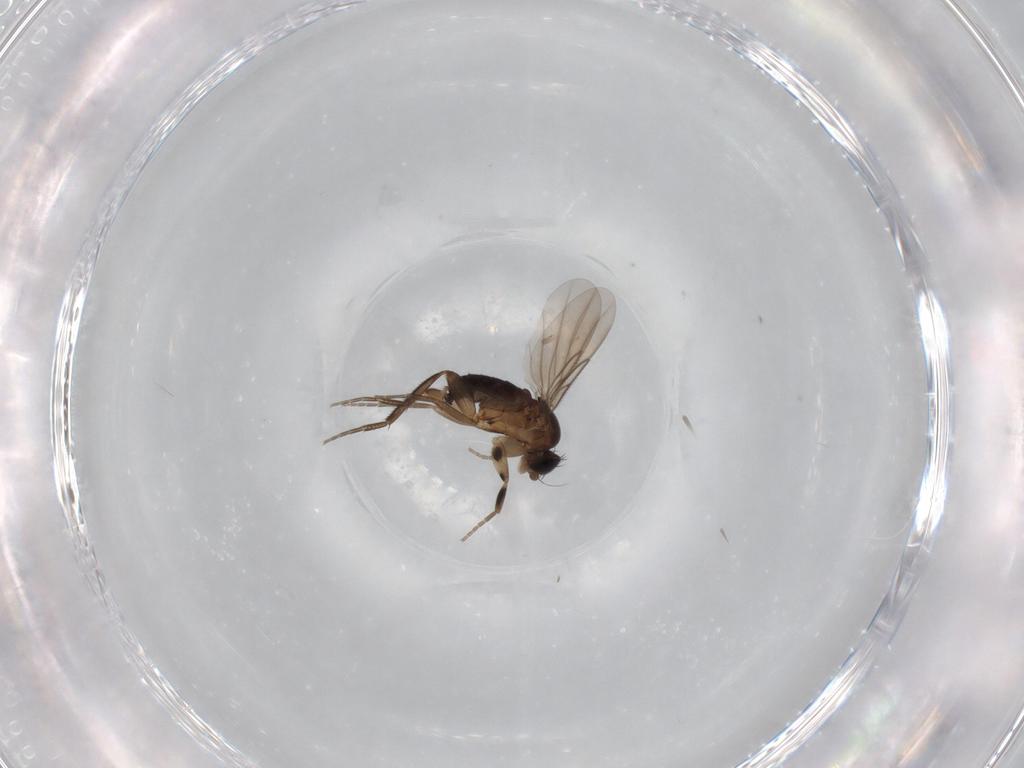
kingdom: Animalia
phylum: Arthropoda
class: Insecta
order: Diptera
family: Phoridae
